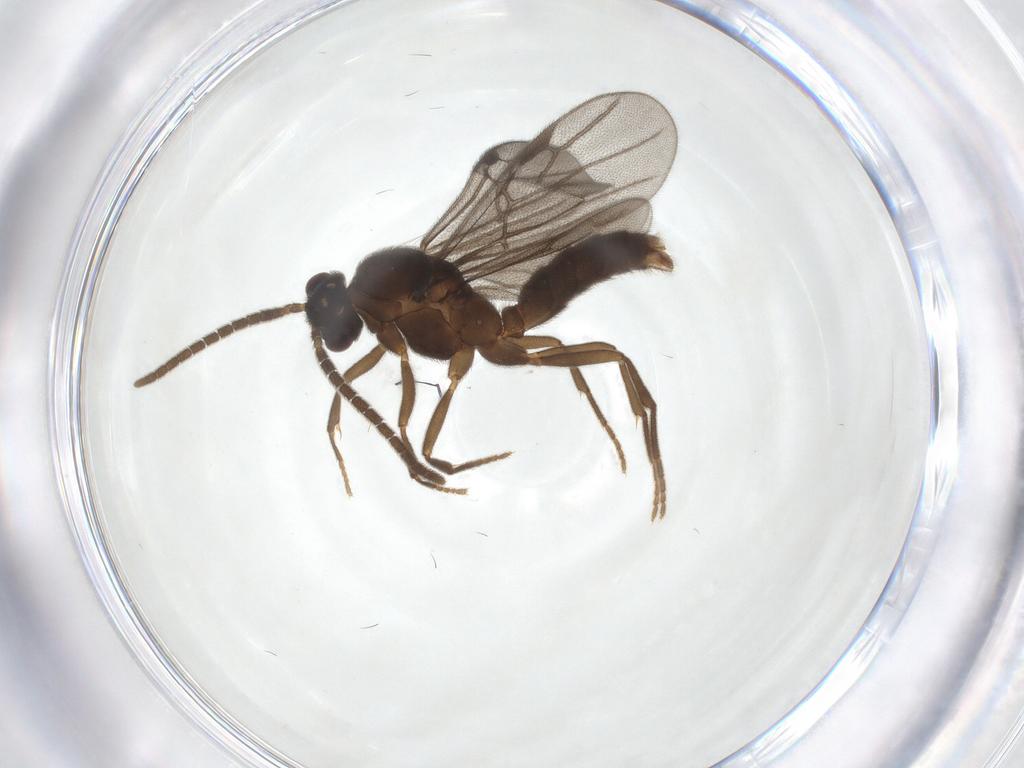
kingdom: Animalia
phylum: Arthropoda
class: Insecta
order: Hymenoptera
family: Formicidae
